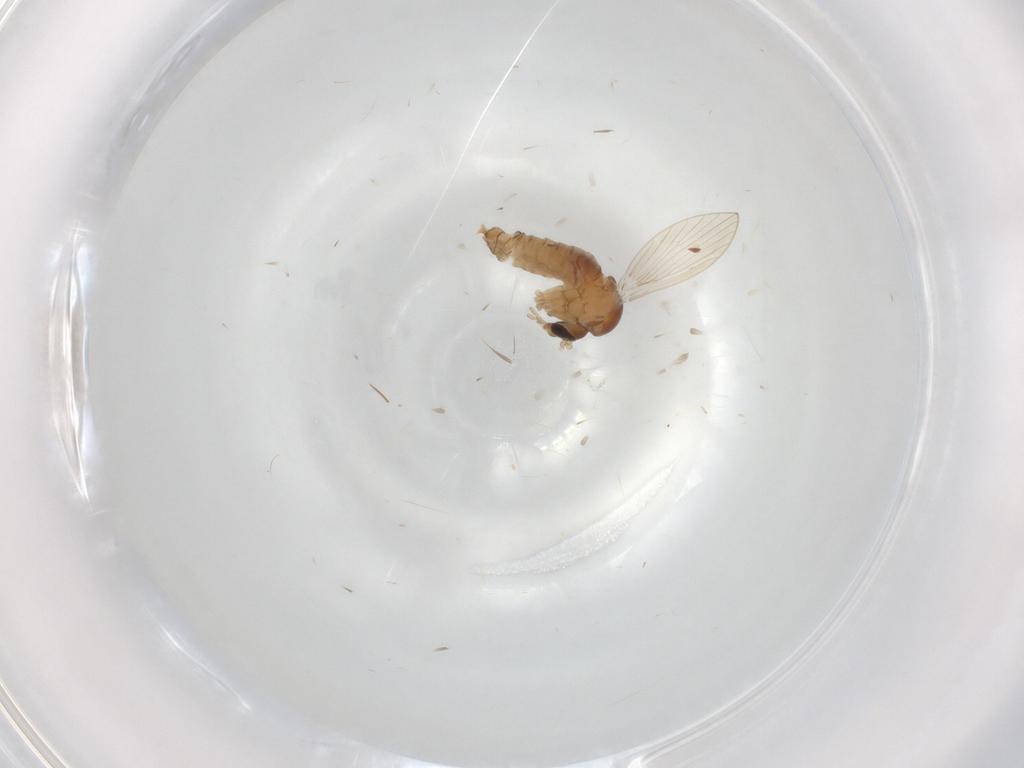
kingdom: Animalia
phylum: Arthropoda
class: Insecta
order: Diptera
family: Psychodidae
